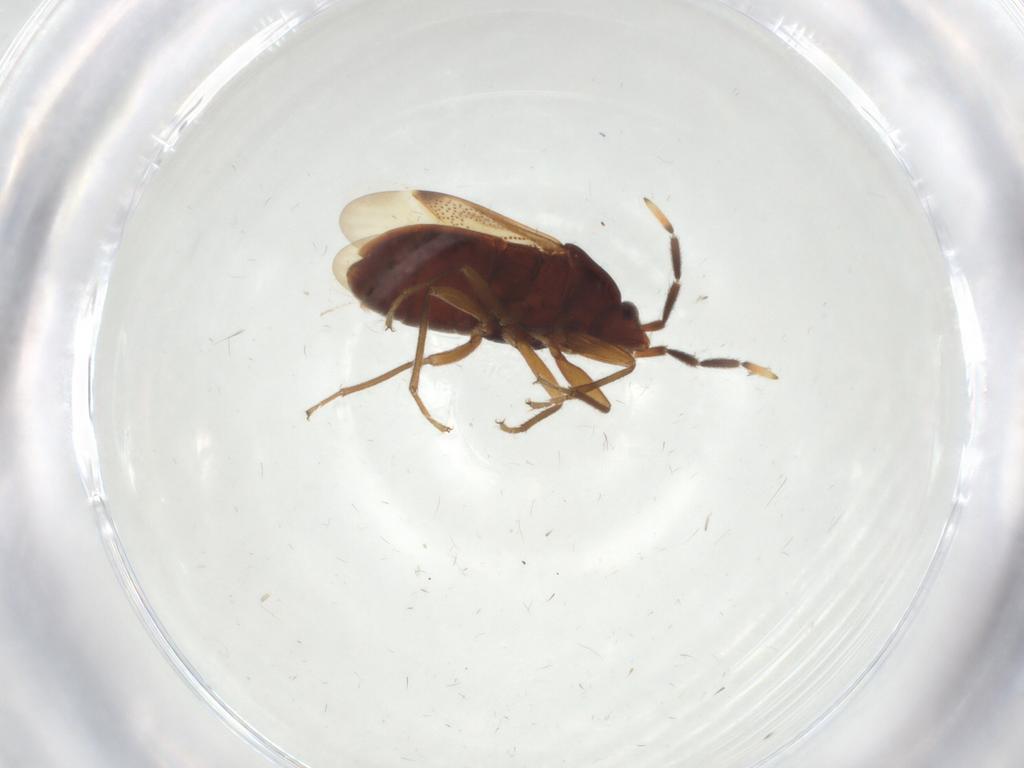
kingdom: Animalia
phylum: Arthropoda
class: Insecta
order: Hemiptera
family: Rhyparochromidae
